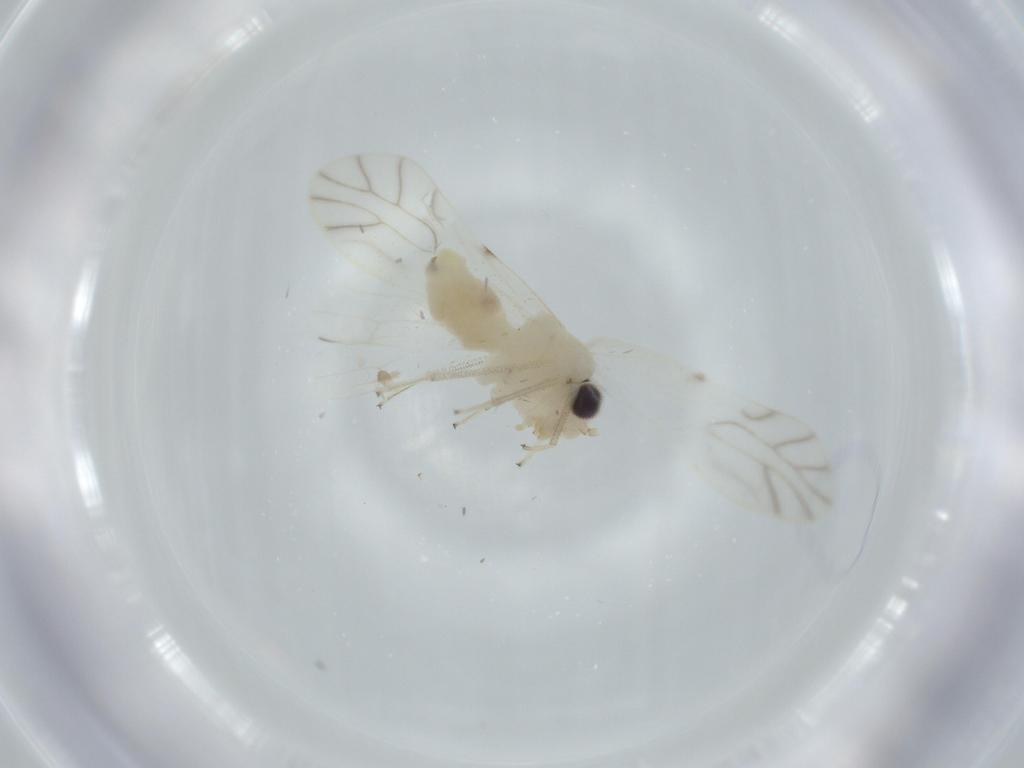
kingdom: Animalia
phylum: Arthropoda
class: Insecta
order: Psocodea
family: Caeciliusidae
